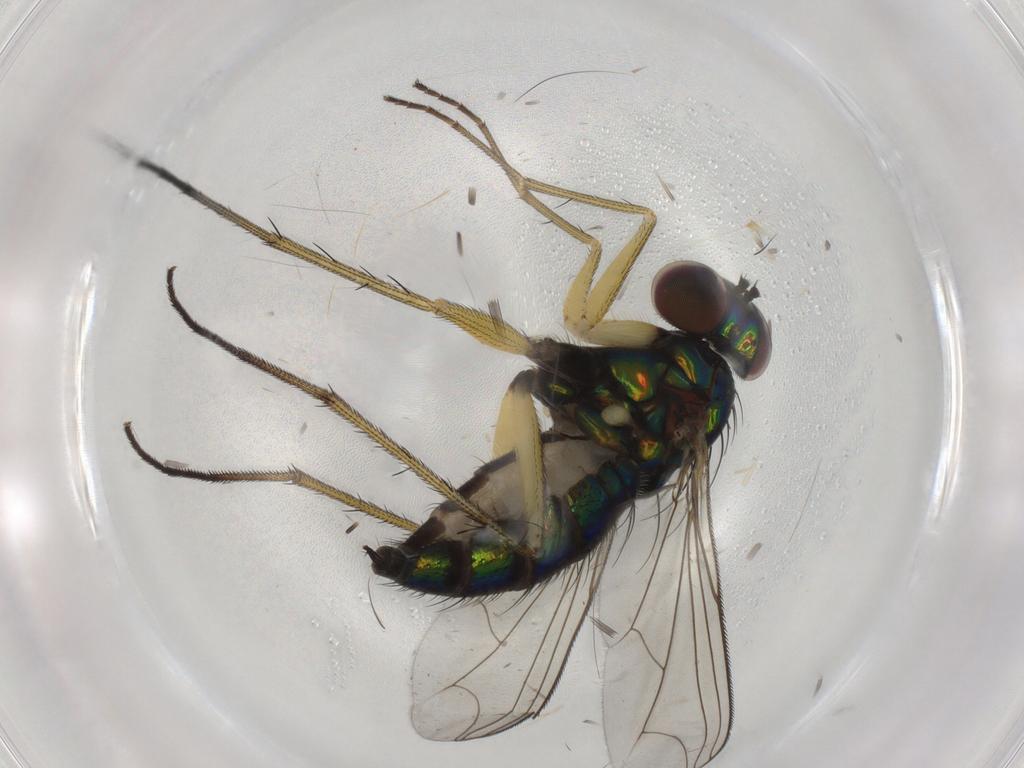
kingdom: Animalia
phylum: Arthropoda
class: Insecta
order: Diptera
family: Dolichopodidae
